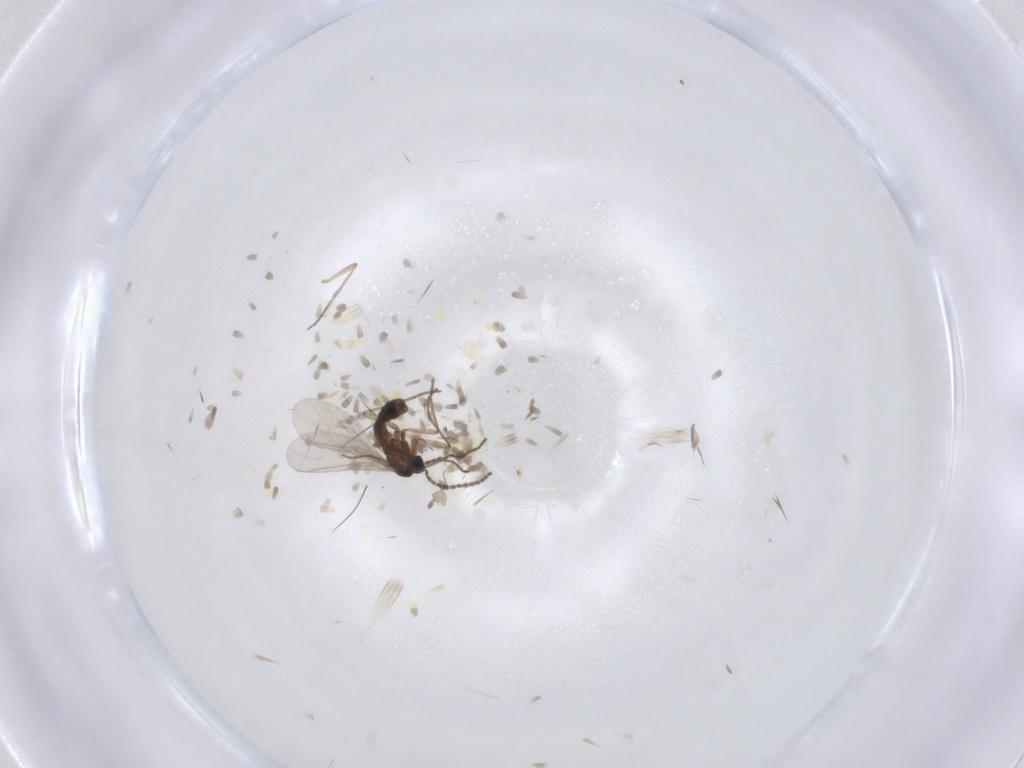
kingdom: Animalia
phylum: Arthropoda
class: Insecta
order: Diptera
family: Sciaridae
